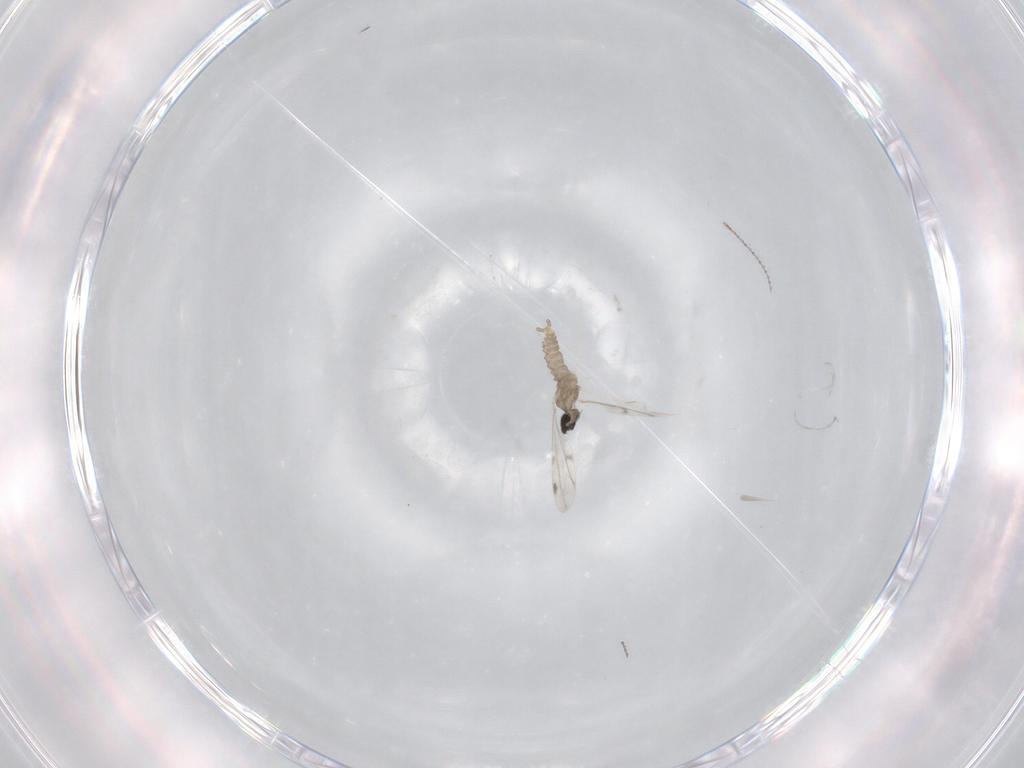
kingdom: Animalia
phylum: Arthropoda
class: Insecta
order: Diptera
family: Cecidomyiidae
